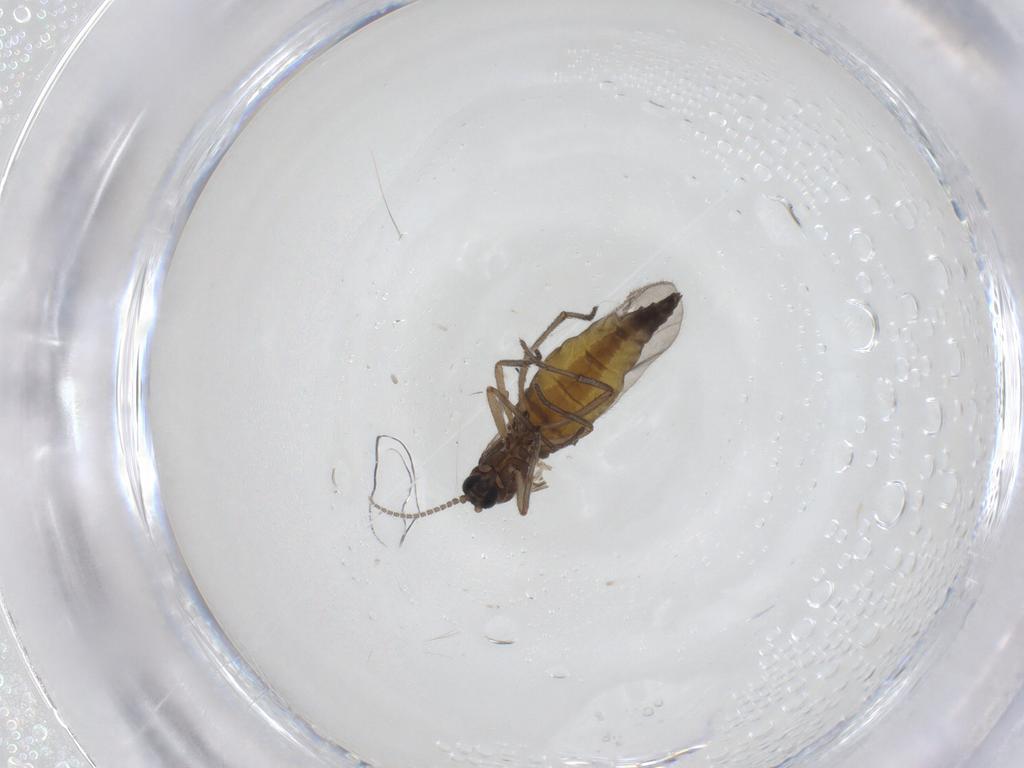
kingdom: Animalia
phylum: Arthropoda
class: Insecta
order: Diptera
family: Sciaridae
